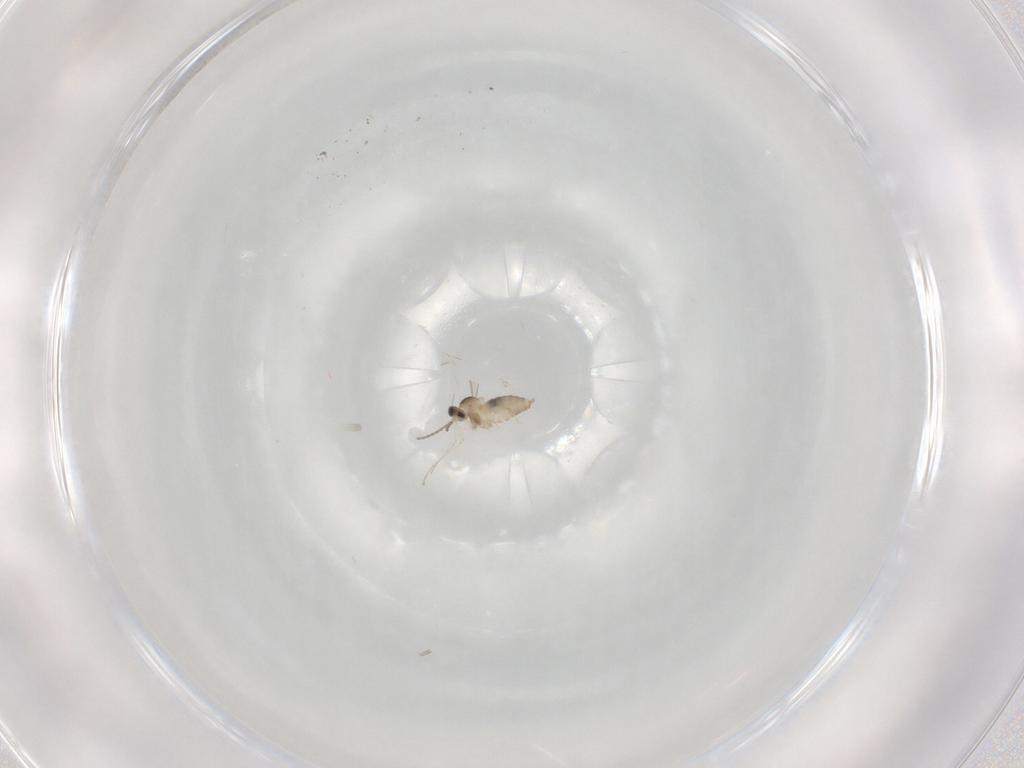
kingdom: Animalia
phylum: Arthropoda
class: Insecta
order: Diptera
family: Cecidomyiidae
